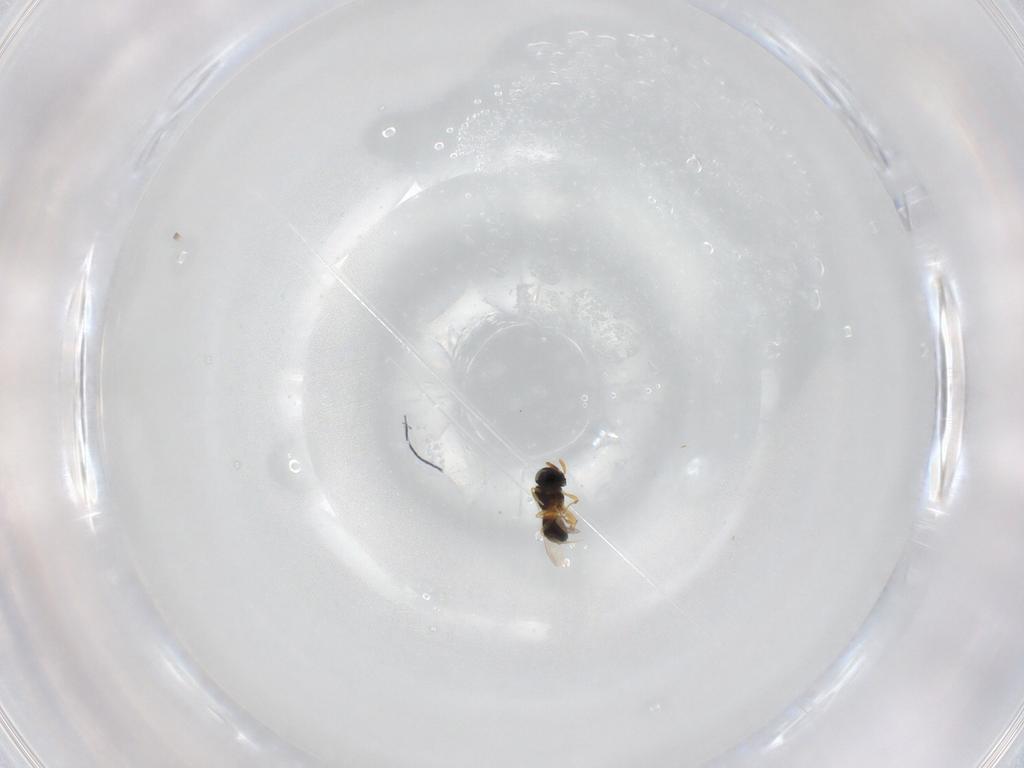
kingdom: Animalia
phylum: Arthropoda
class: Insecta
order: Hymenoptera
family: Scelionidae
